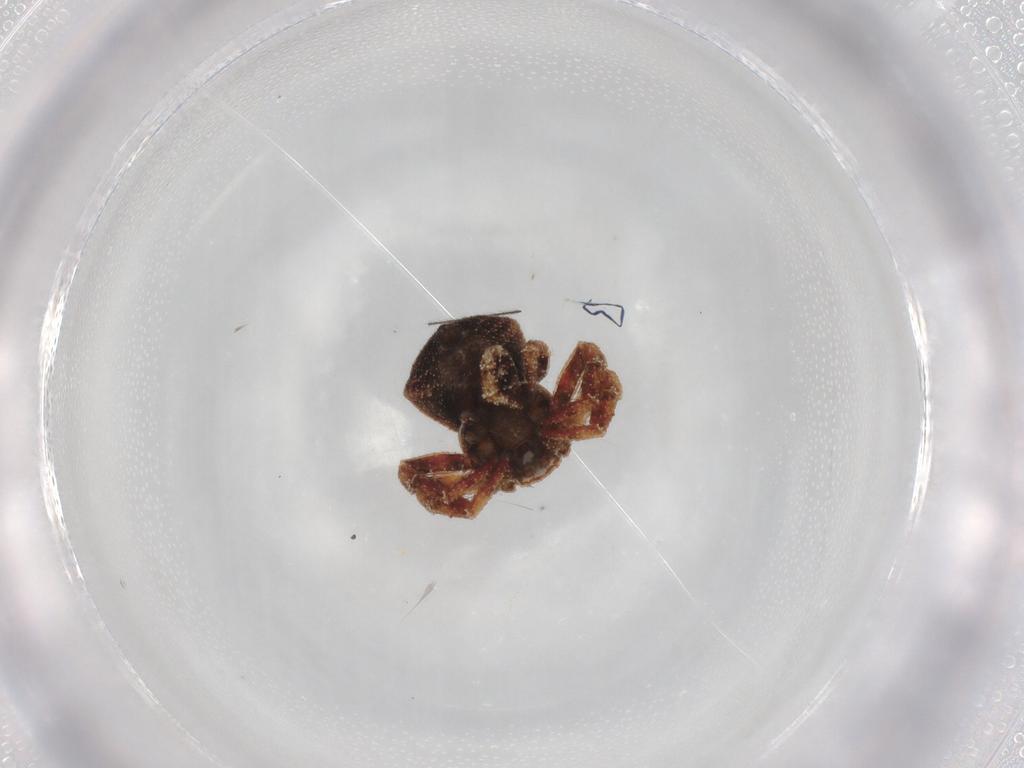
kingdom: Animalia
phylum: Arthropoda
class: Arachnida
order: Araneae
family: Thomisidae
